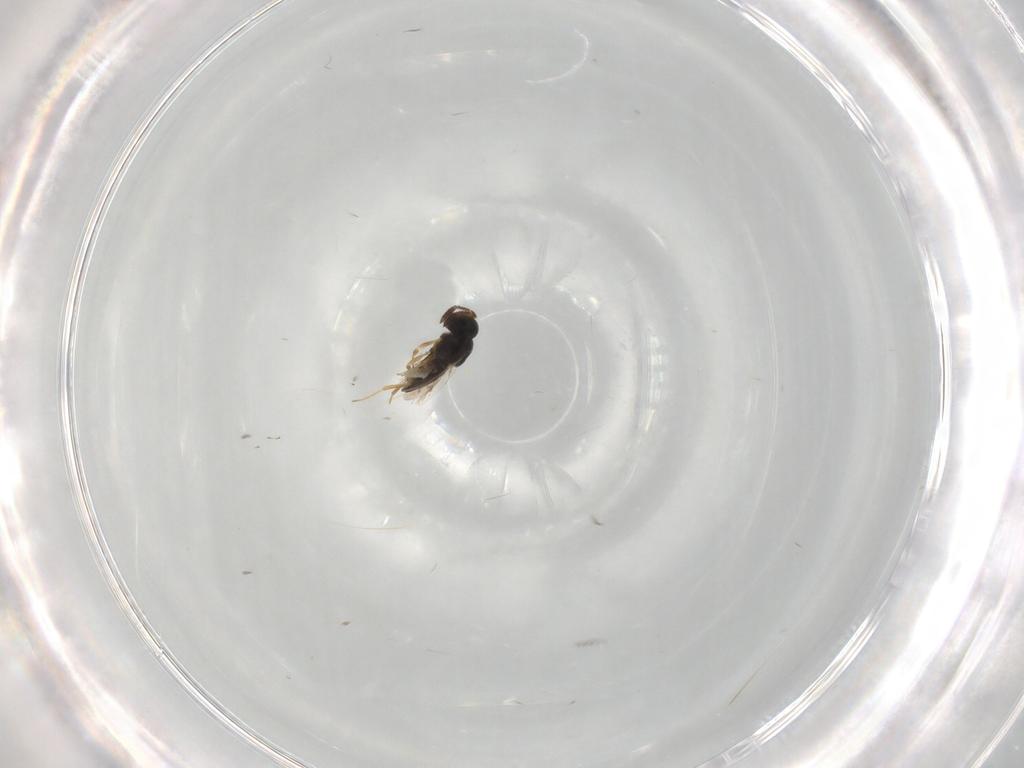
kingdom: Animalia
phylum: Arthropoda
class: Insecta
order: Hymenoptera
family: Scelionidae
